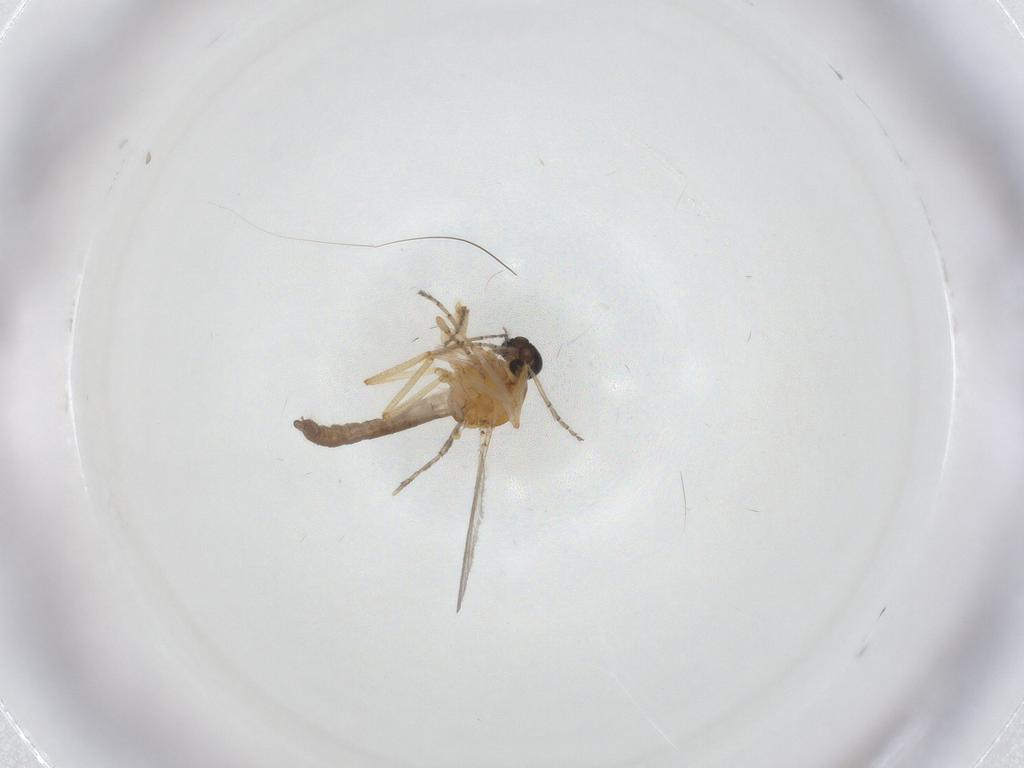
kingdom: Animalia
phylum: Arthropoda
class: Insecta
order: Diptera
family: Ceratopogonidae
